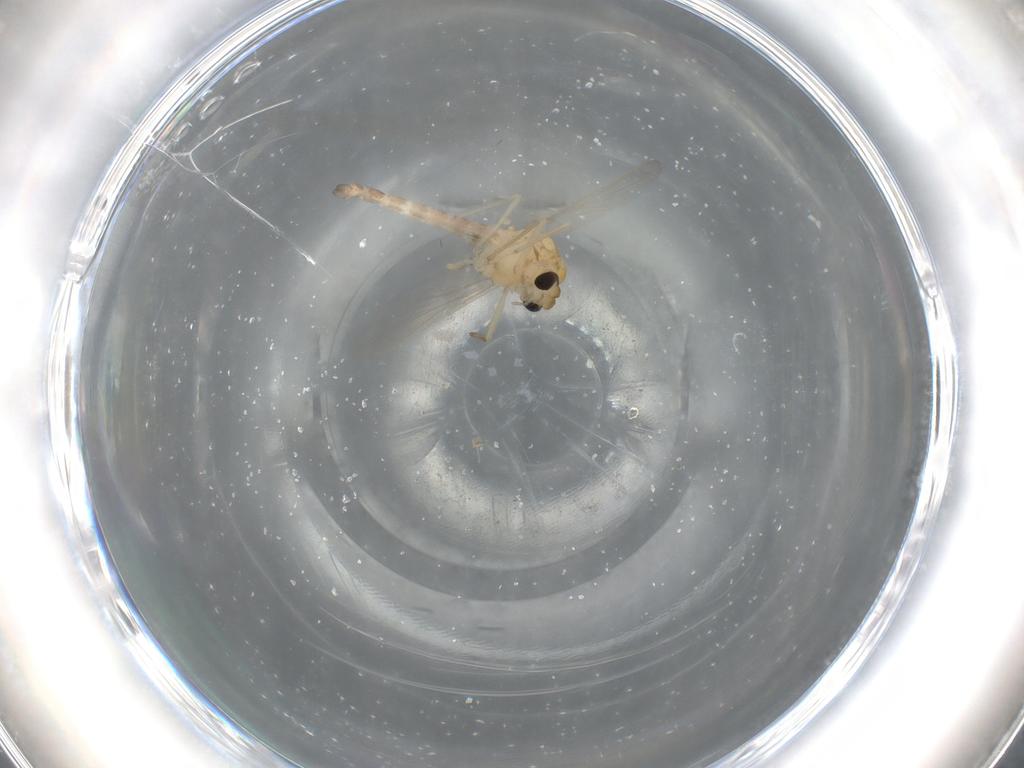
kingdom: Animalia
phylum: Arthropoda
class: Insecta
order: Diptera
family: Chironomidae
